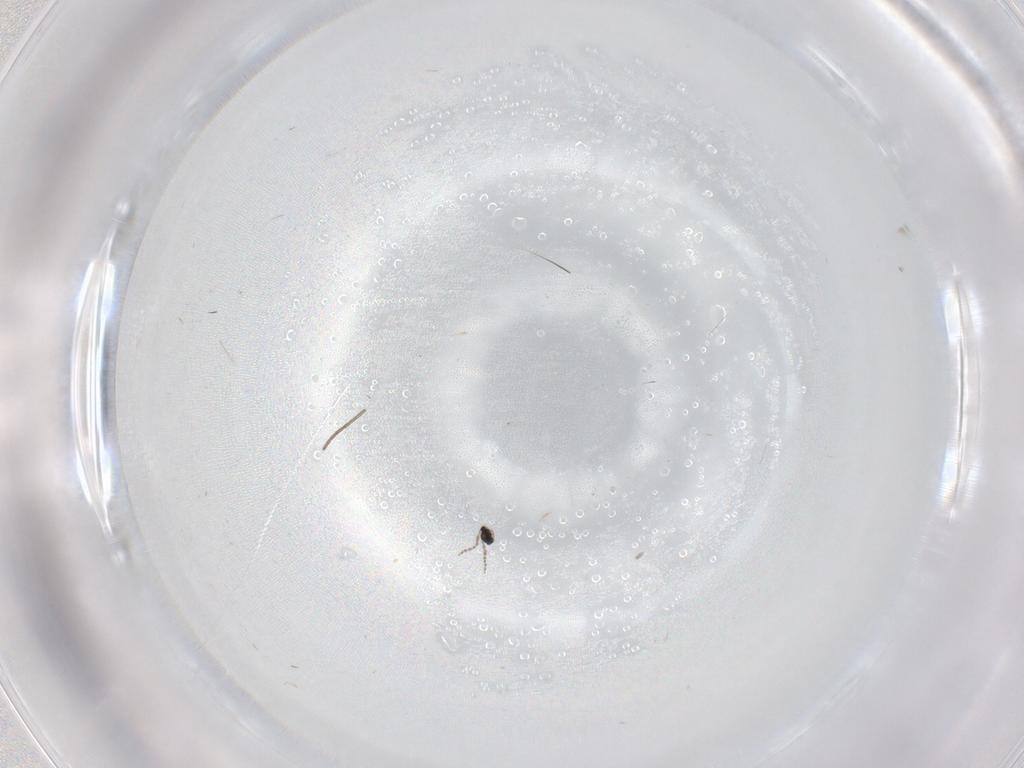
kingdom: Animalia
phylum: Arthropoda
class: Insecta
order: Diptera
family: Cecidomyiidae
